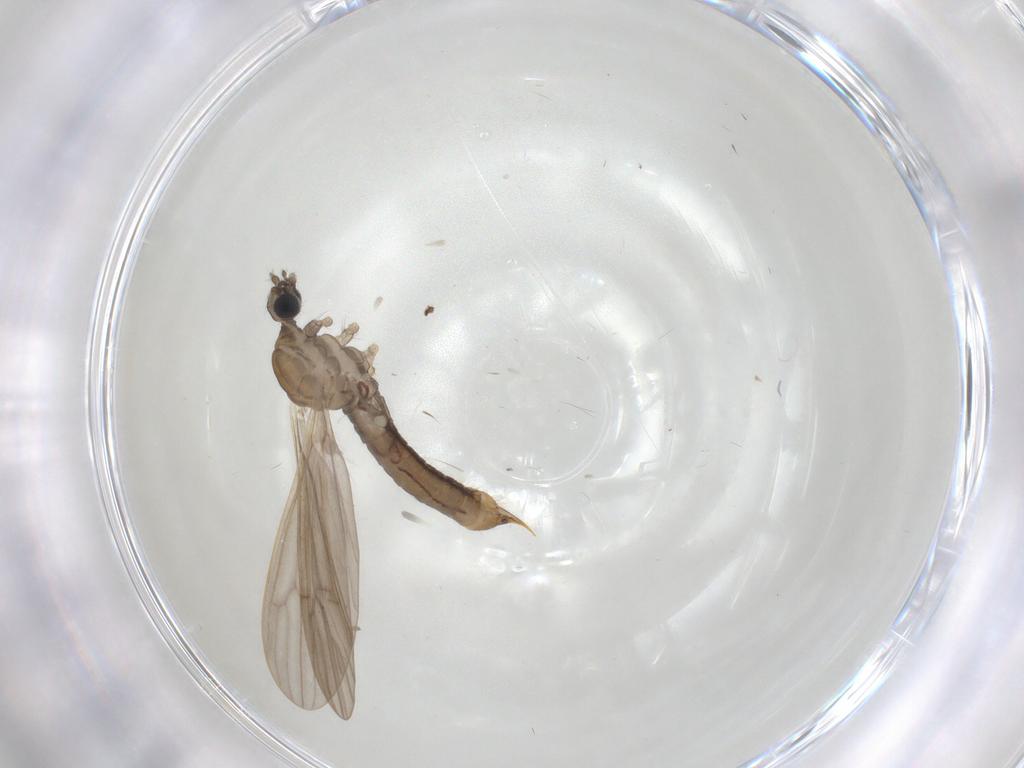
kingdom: Animalia
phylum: Arthropoda
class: Insecta
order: Diptera
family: Limoniidae
